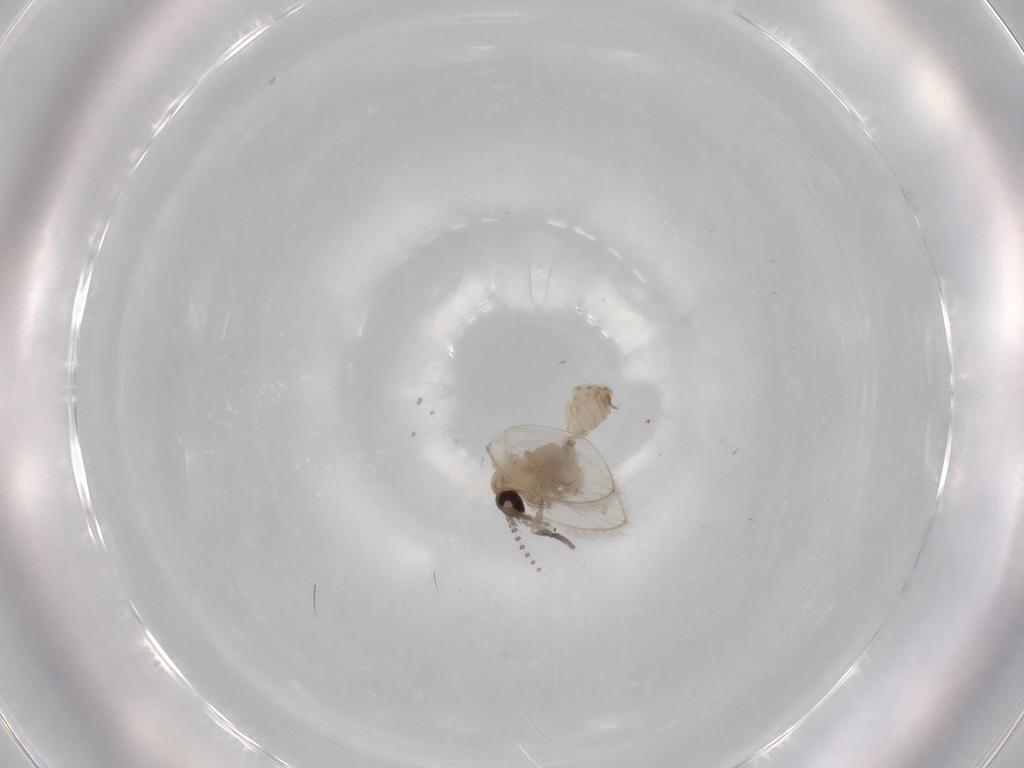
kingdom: Animalia
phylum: Arthropoda
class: Insecta
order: Diptera
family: Psychodidae
